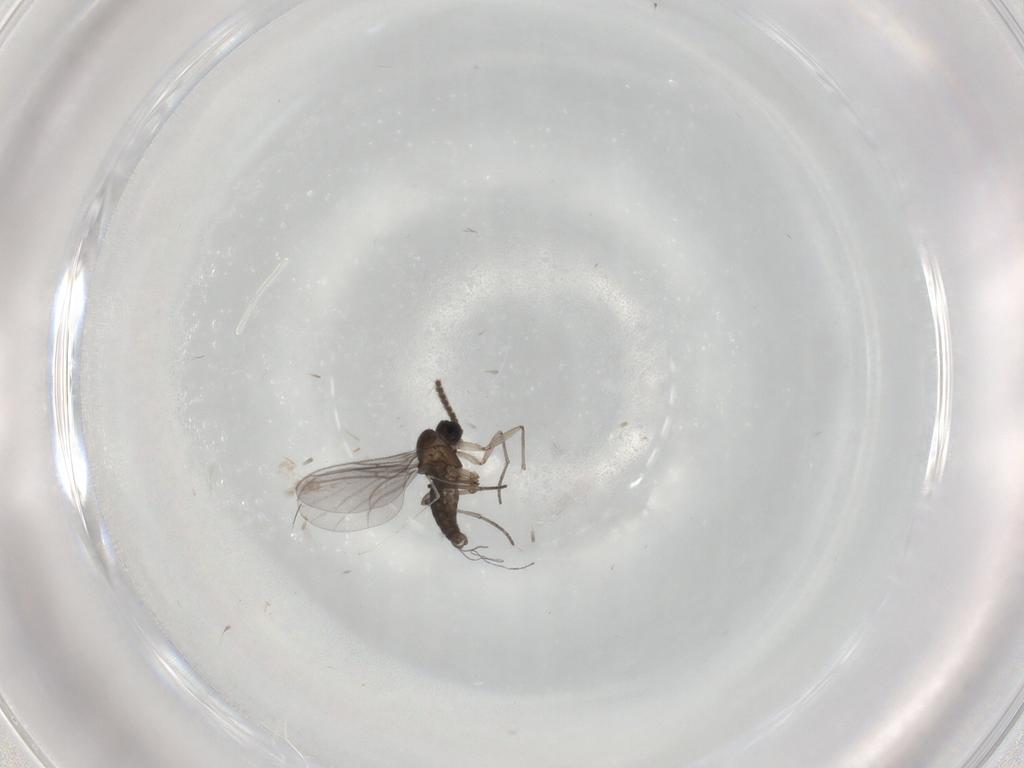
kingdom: Animalia
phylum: Arthropoda
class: Insecta
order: Diptera
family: Cecidomyiidae
